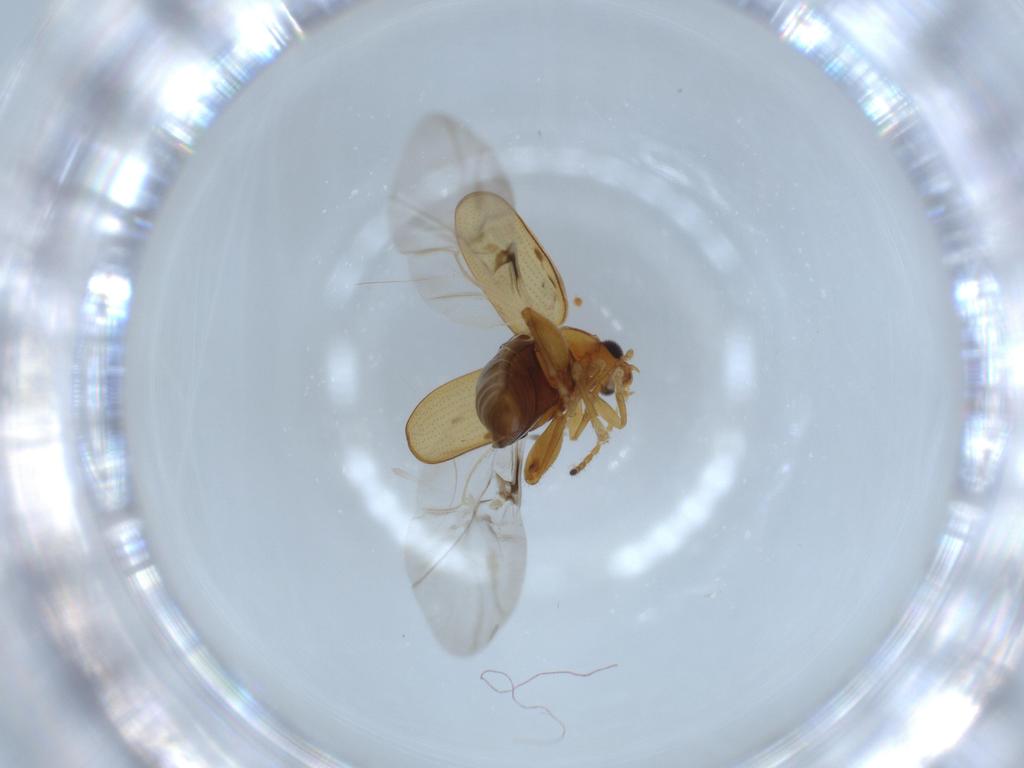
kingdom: Animalia
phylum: Arthropoda
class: Insecta
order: Coleoptera
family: Chrysomelidae
